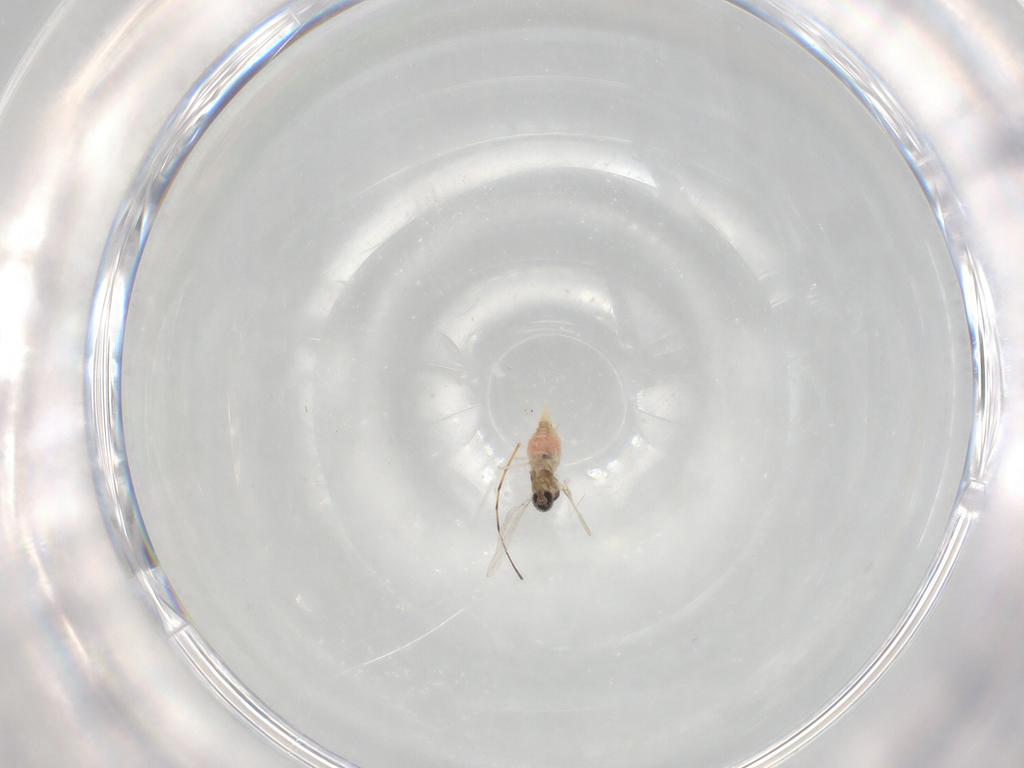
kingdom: Animalia
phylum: Arthropoda
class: Insecta
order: Diptera
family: Cecidomyiidae
